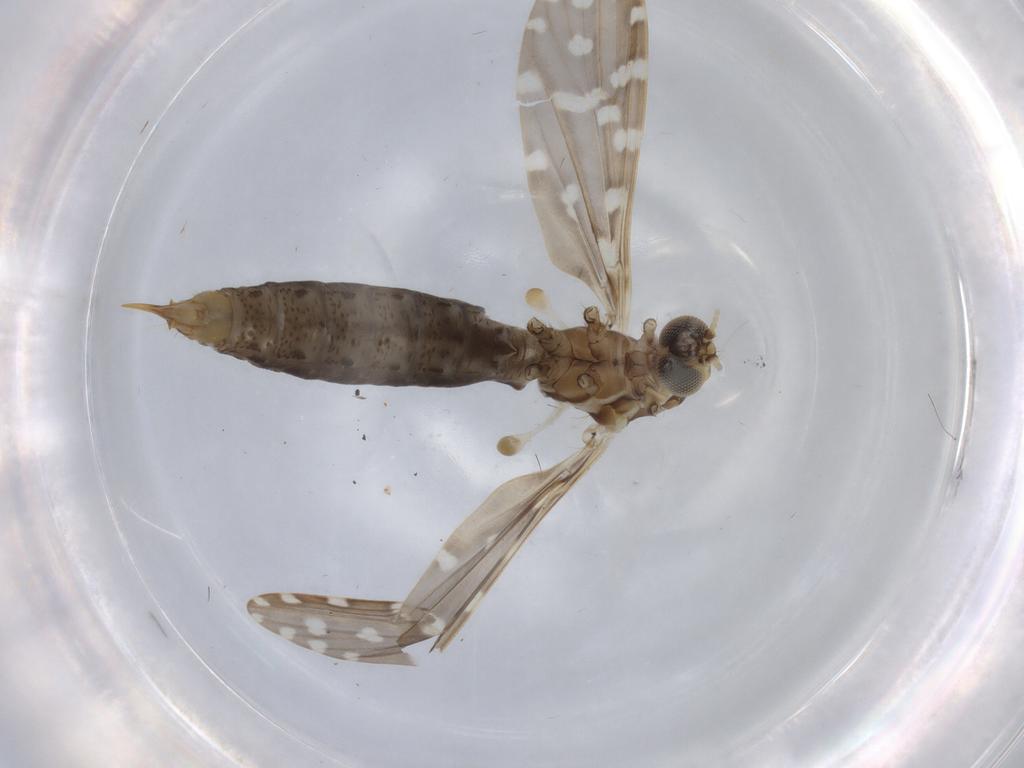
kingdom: Animalia
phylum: Arthropoda
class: Insecta
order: Diptera
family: Limoniidae
